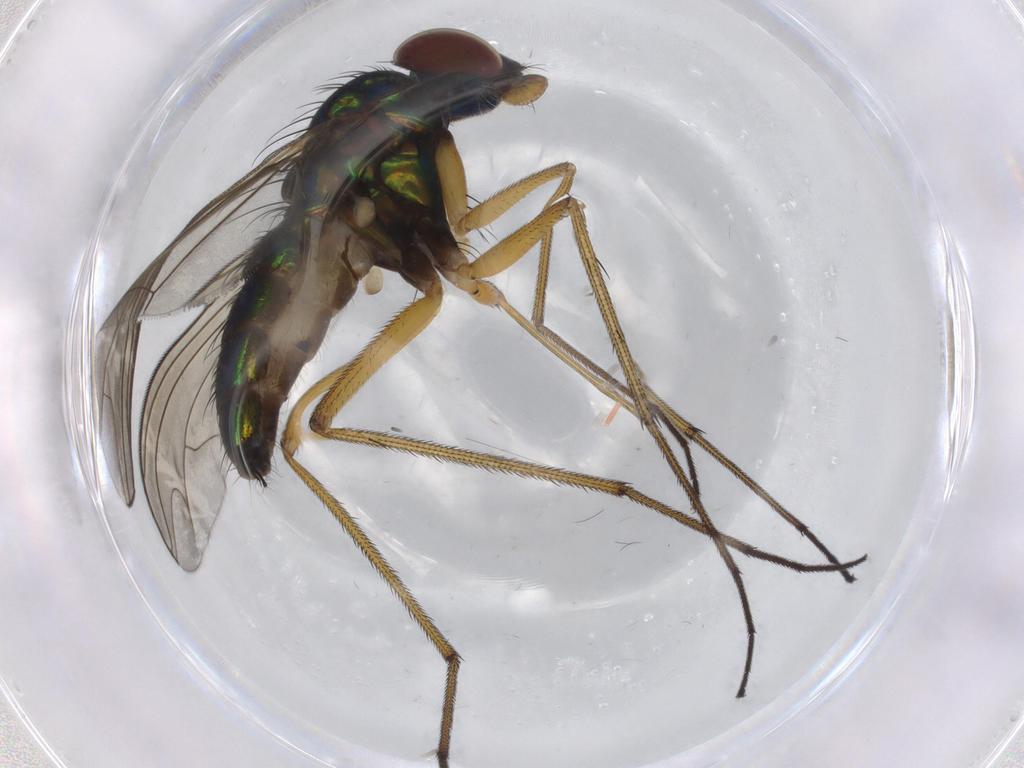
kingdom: Animalia
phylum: Arthropoda
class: Insecta
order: Diptera
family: Dolichopodidae
